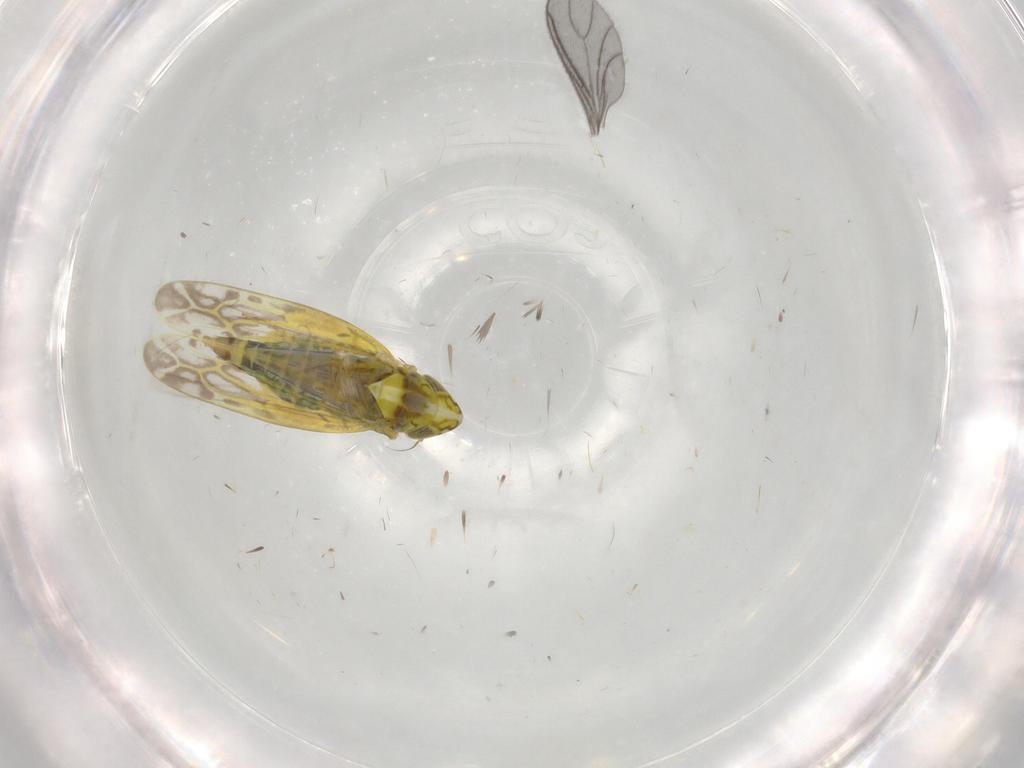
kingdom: Animalia
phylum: Arthropoda
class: Insecta
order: Hemiptera
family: Cicadellidae
